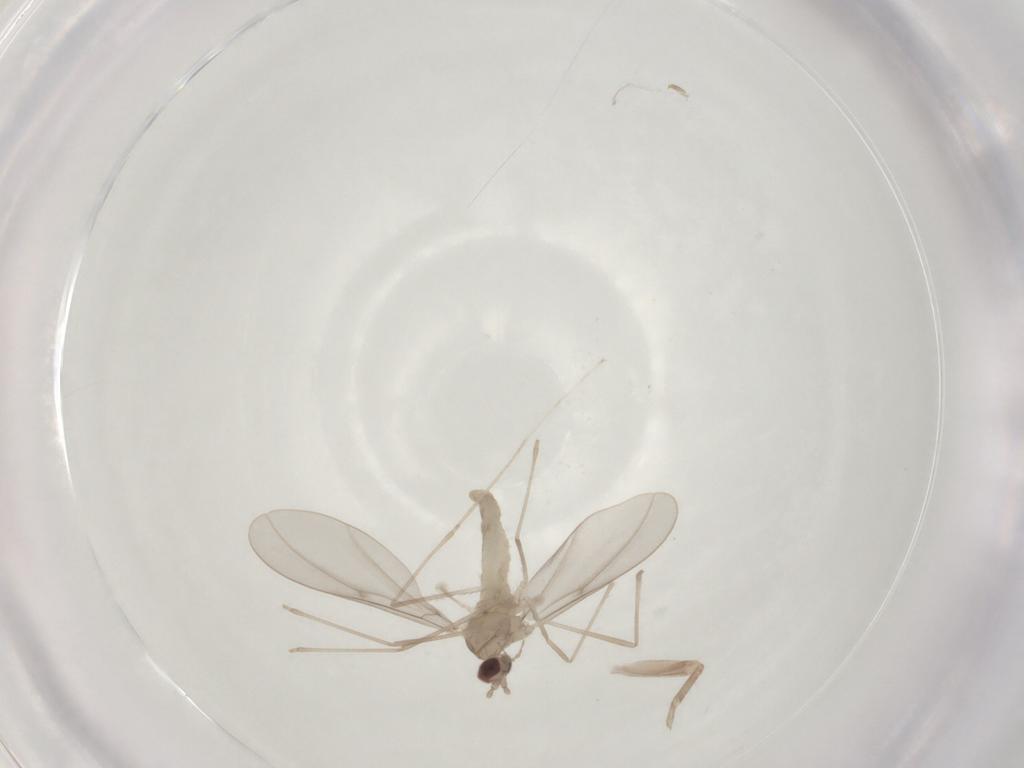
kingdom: Animalia
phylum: Arthropoda
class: Insecta
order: Diptera
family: Cecidomyiidae
